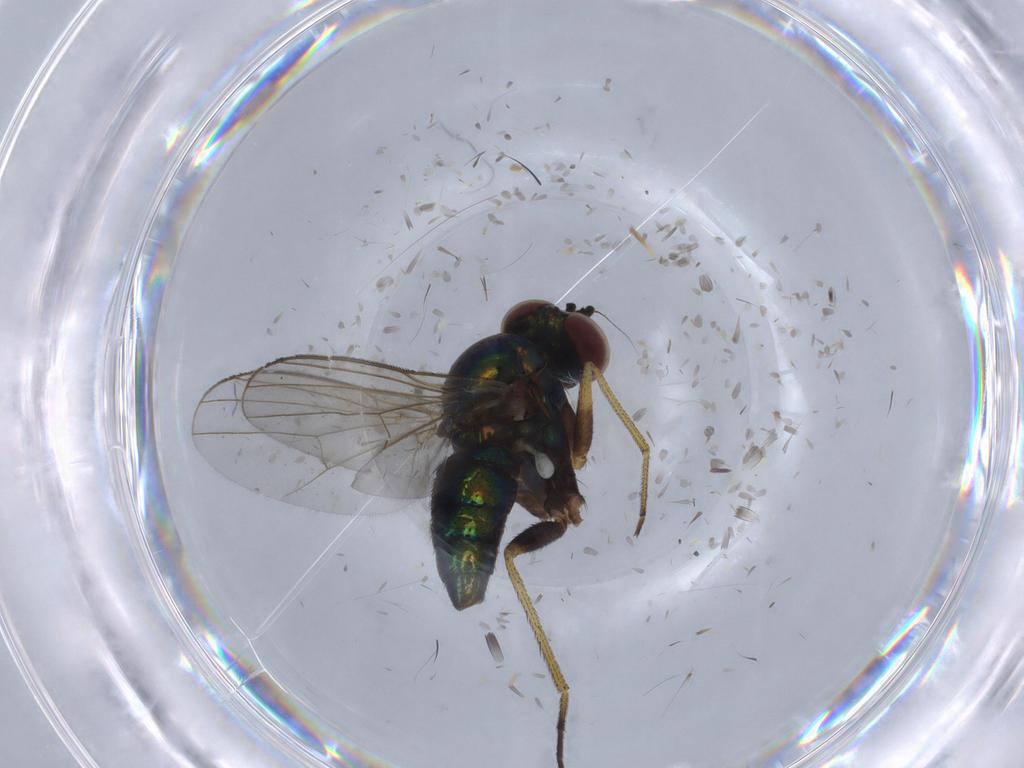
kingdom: Animalia
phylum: Arthropoda
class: Insecta
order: Diptera
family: Dolichopodidae
